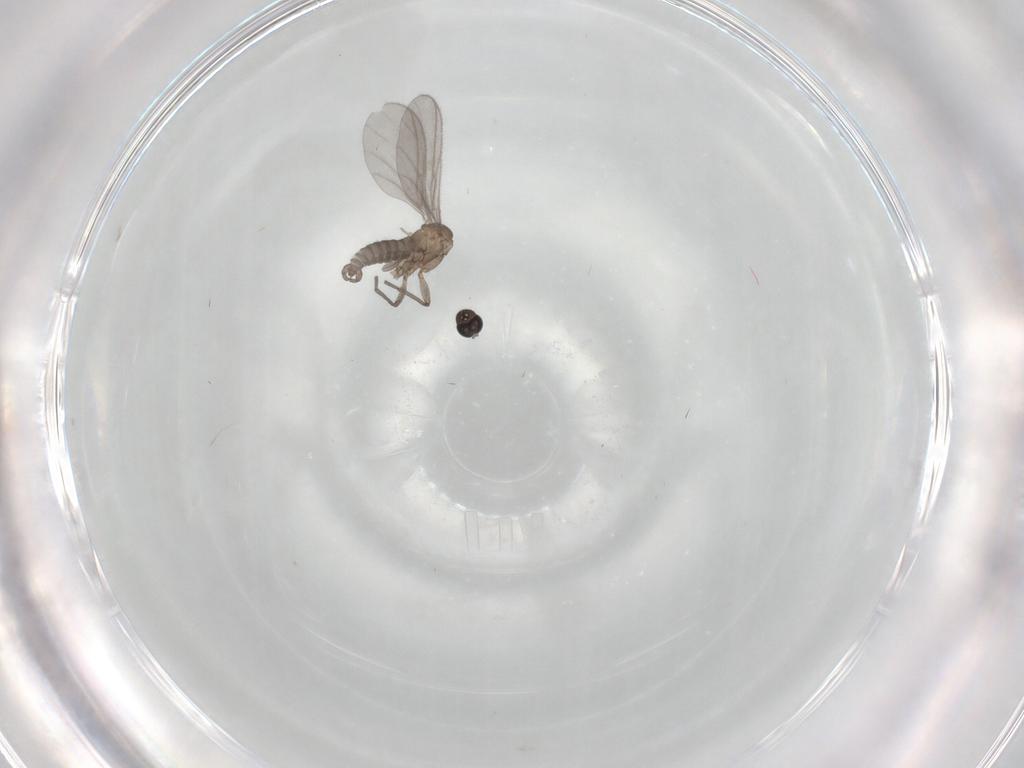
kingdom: Animalia
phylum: Arthropoda
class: Insecta
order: Diptera
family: Sciaridae
